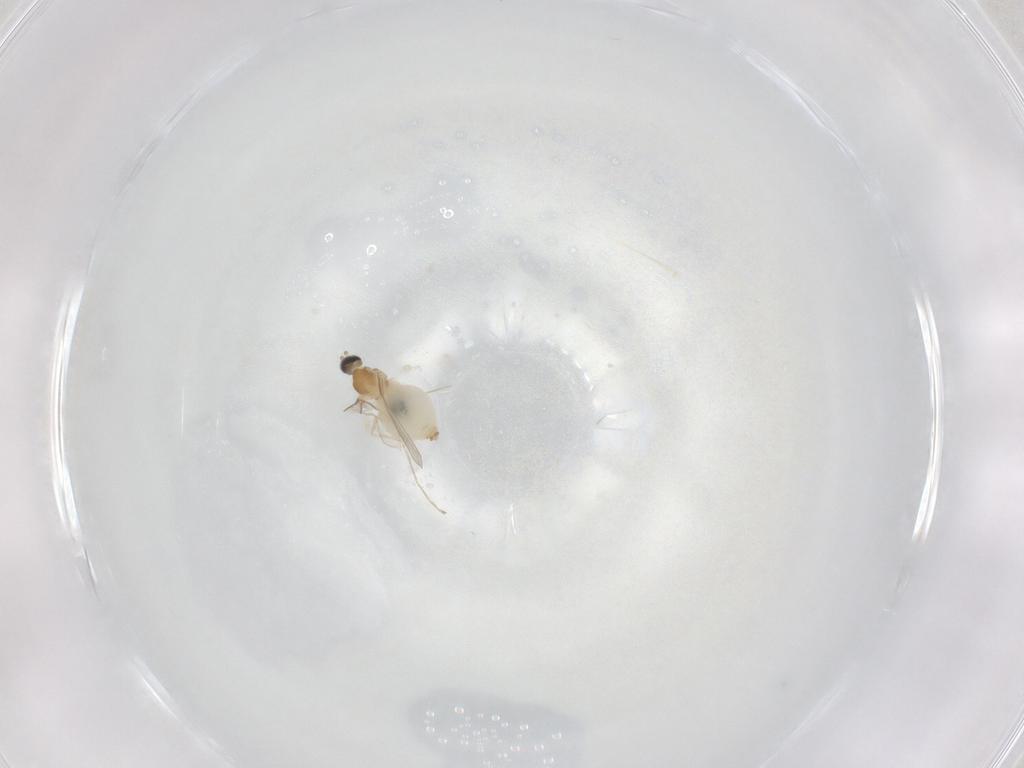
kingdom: Animalia
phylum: Arthropoda
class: Insecta
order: Diptera
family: Cecidomyiidae
